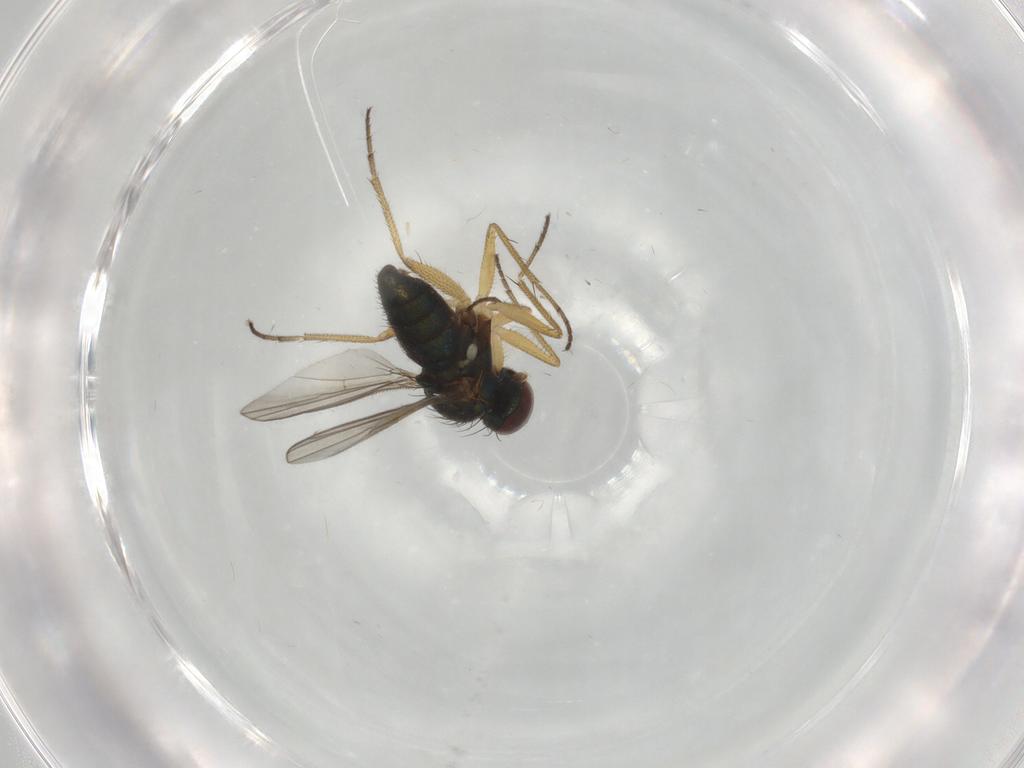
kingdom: Animalia
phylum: Arthropoda
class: Insecta
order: Diptera
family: Dolichopodidae
